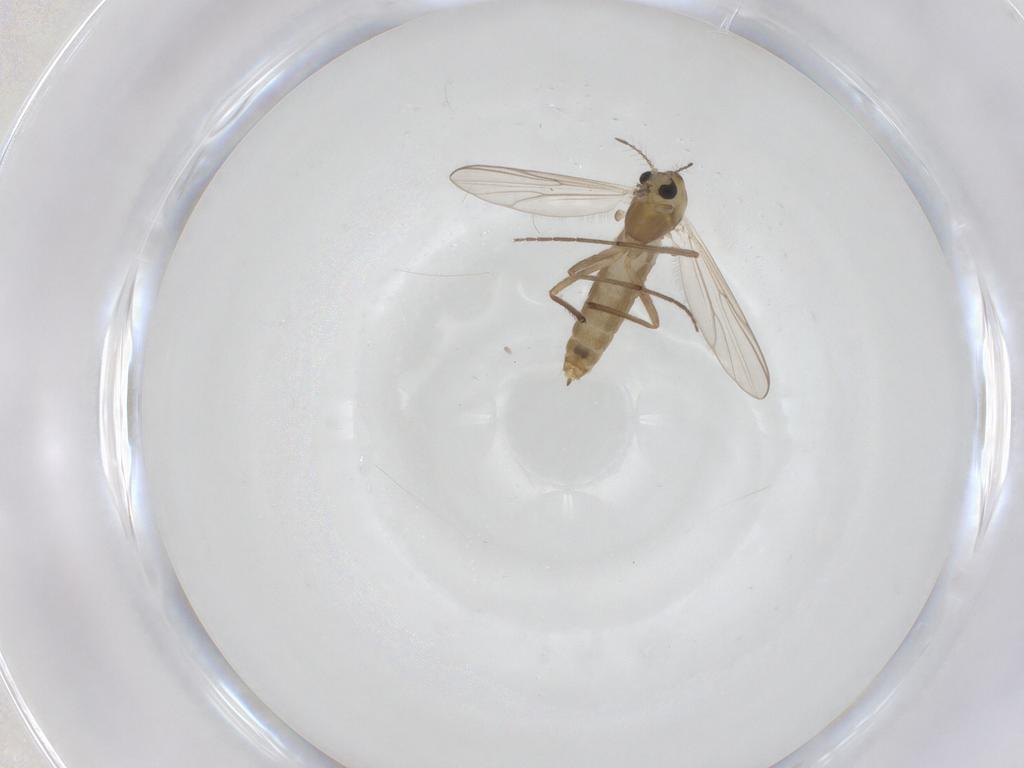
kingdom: Animalia
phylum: Arthropoda
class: Insecta
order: Diptera
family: Chironomidae
